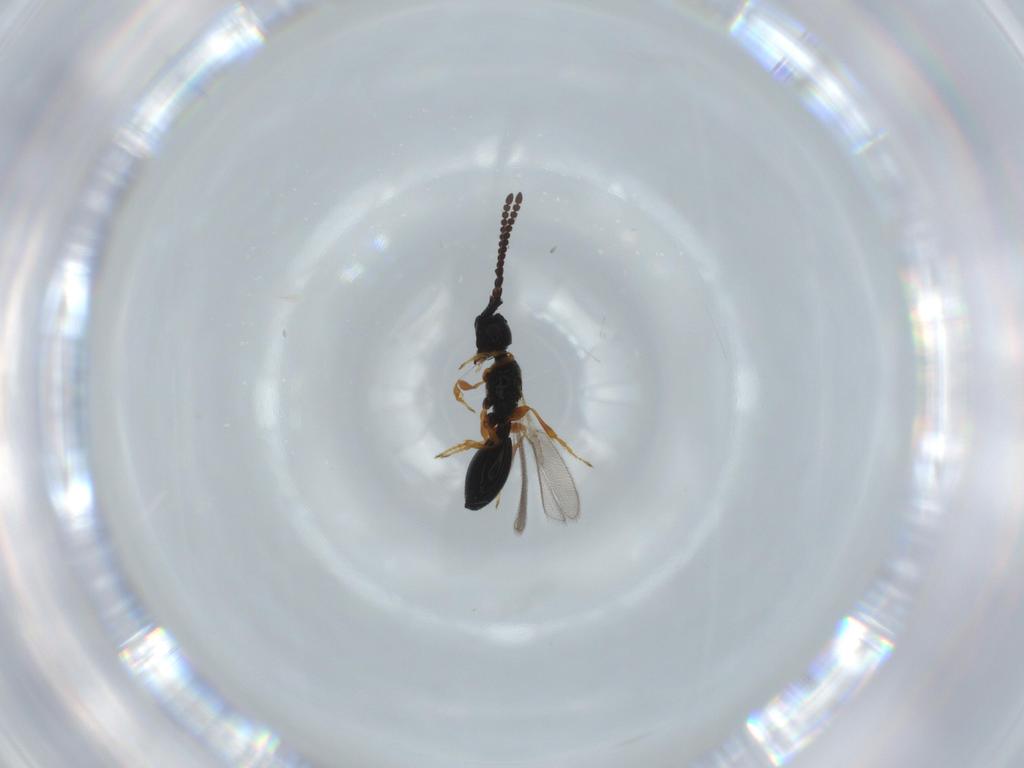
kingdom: Animalia
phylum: Arthropoda
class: Insecta
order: Hymenoptera
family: Diapriidae
